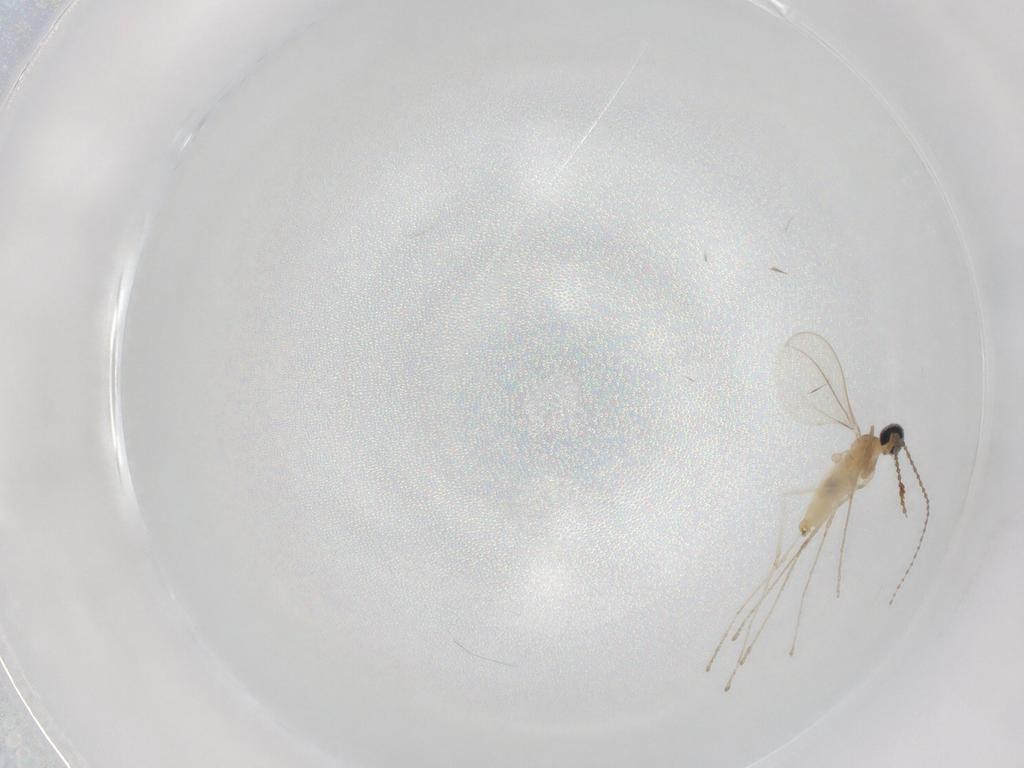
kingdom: Animalia
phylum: Arthropoda
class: Insecta
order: Diptera
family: Cecidomyiidae
